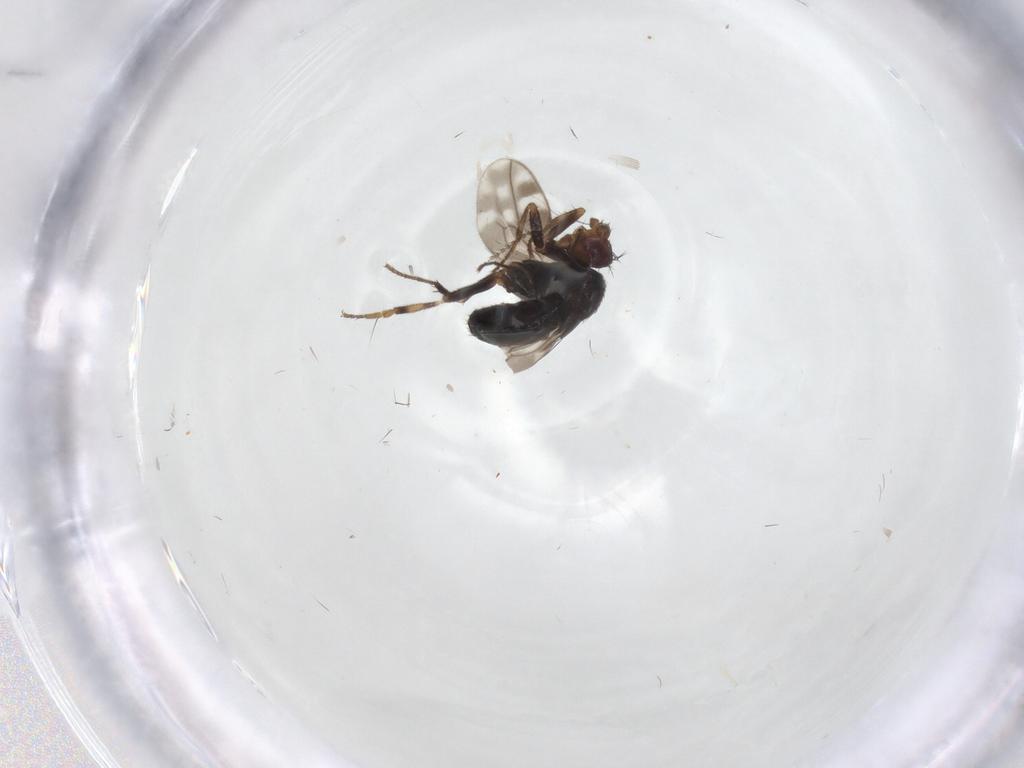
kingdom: Animalia
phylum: Arthropoda
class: Insecta
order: Diptera
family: Sphaeroceridae
